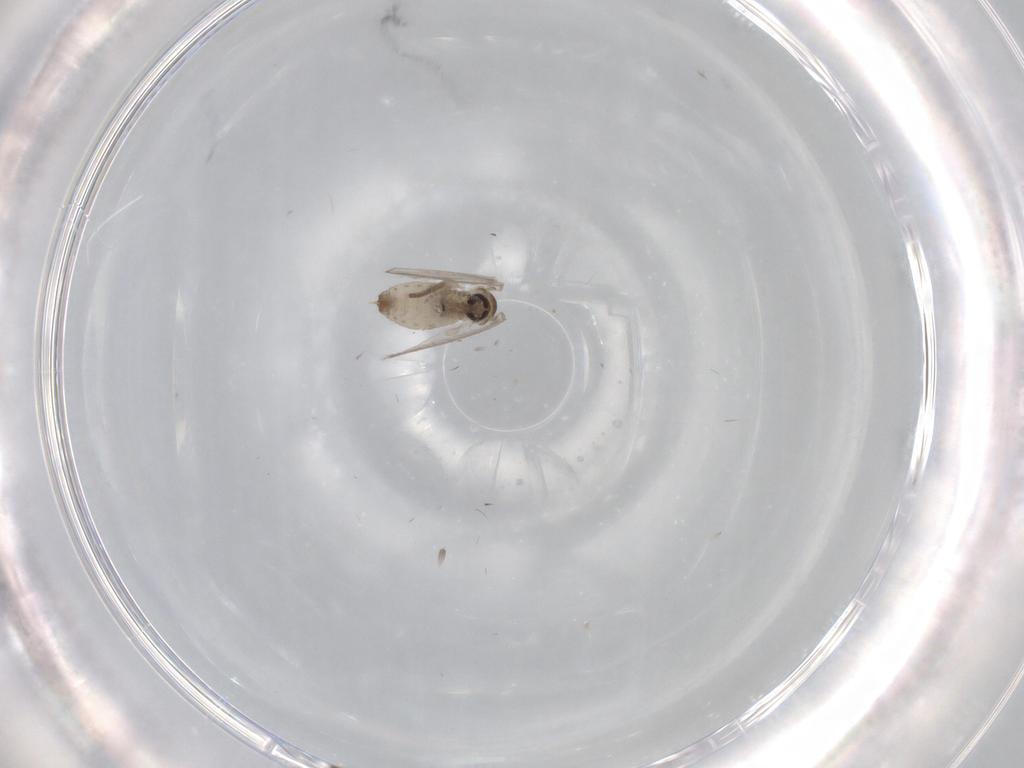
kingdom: Animalia
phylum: Arthropoda
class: Insecta
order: Diptera
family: Psychodidae
